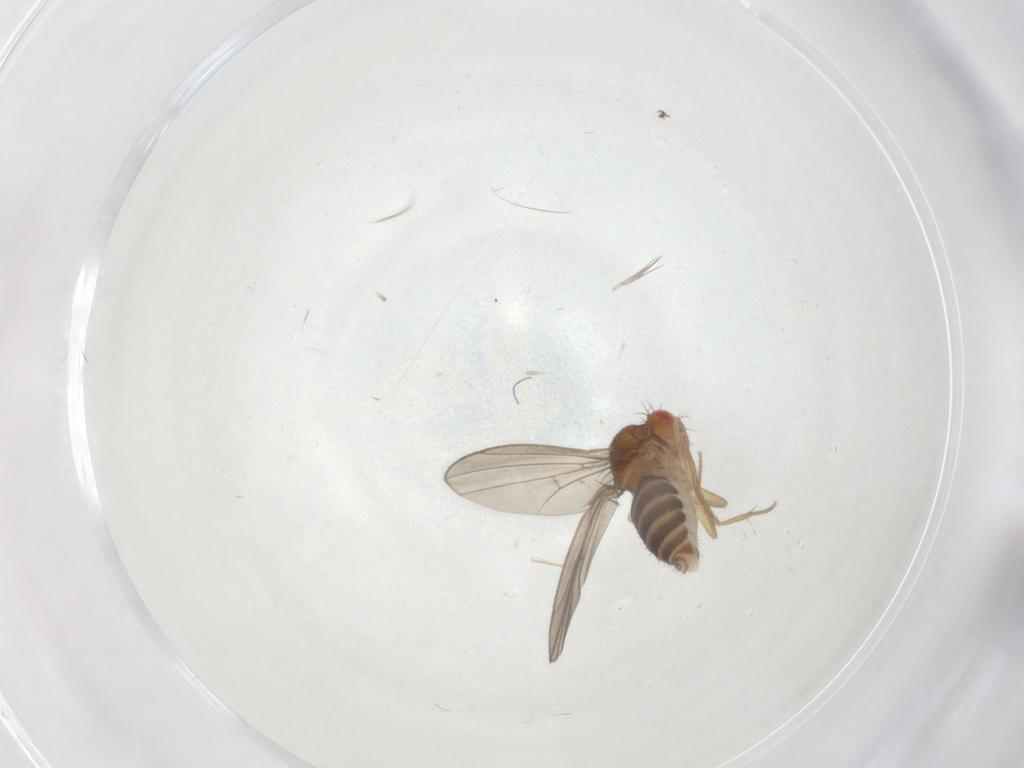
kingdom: Animalia
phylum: Arthropoda
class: Insecta
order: Diptera
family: Drosophilidae
